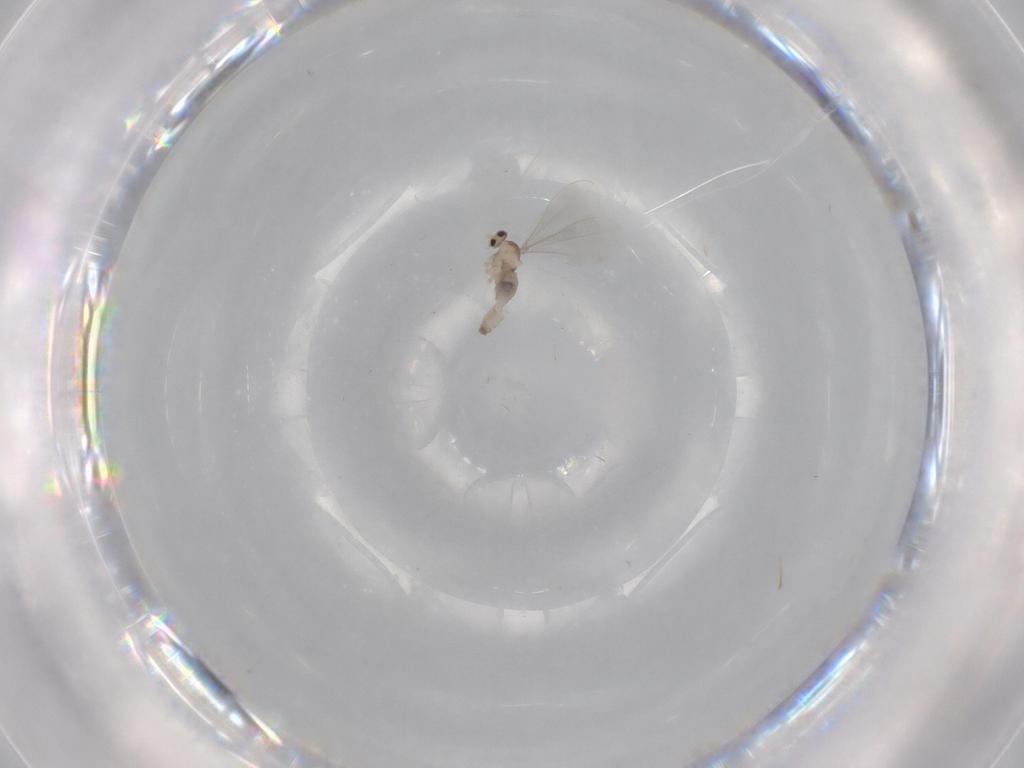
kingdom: Animalia
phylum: Arthropoda
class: Insecta
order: Diptera
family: Cecidomyiidae
